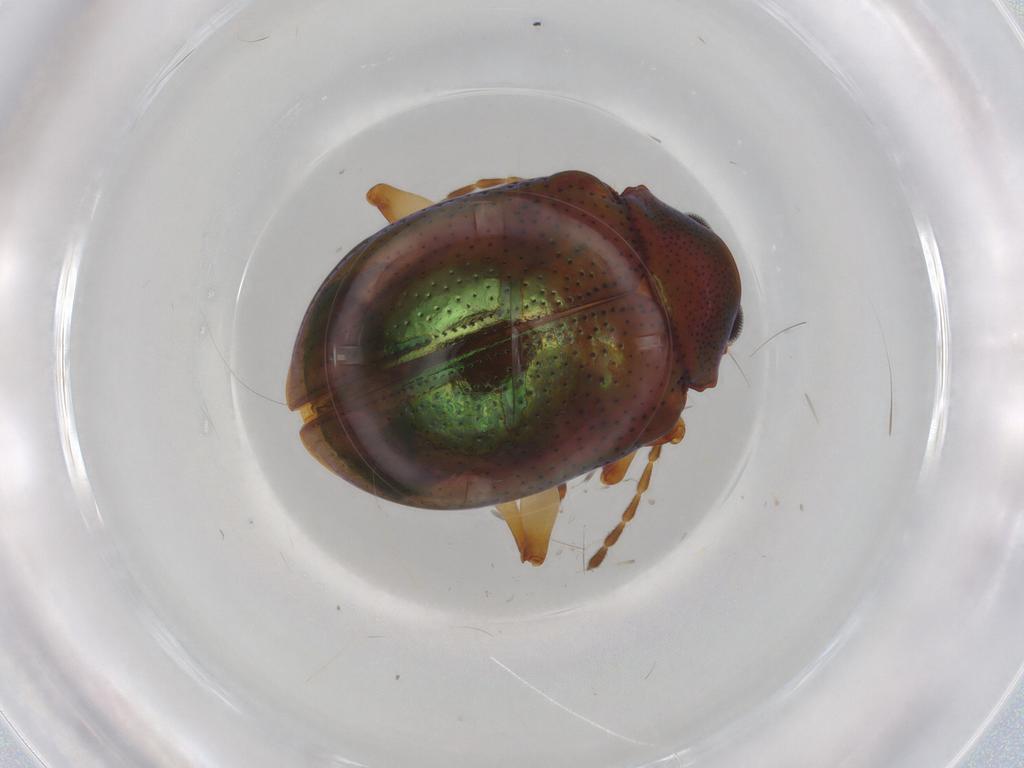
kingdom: Animalia
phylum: Arthropoda
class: Insecta
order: Coleoptera
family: Chrysomelidae
